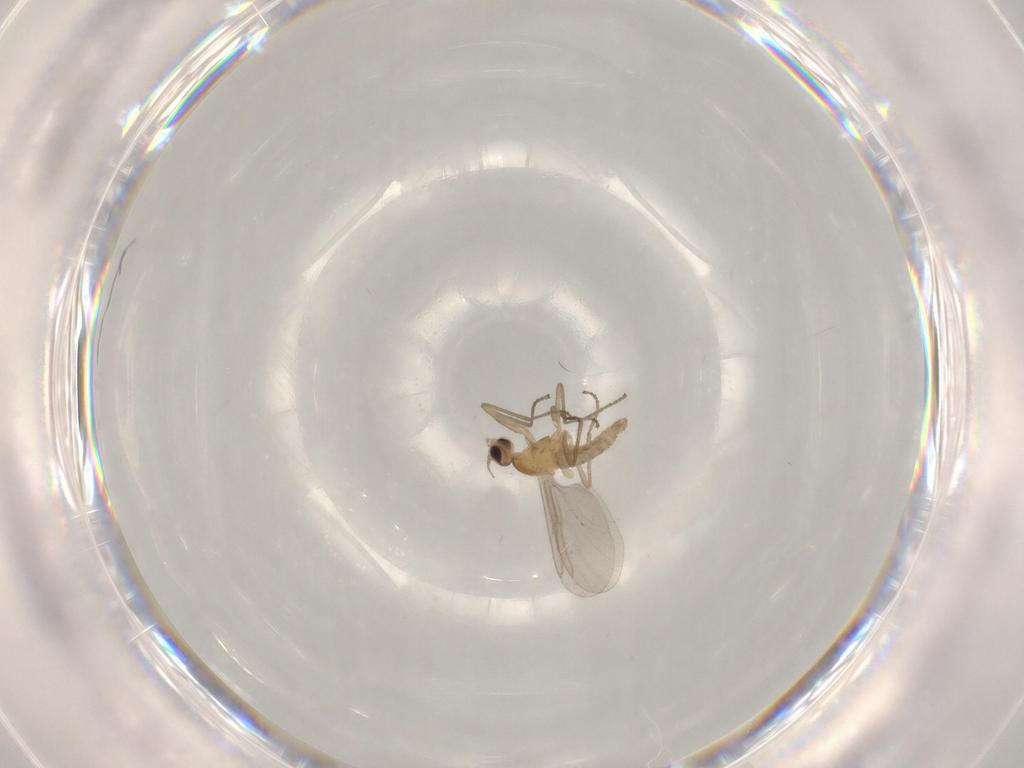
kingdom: Animalia
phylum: Arthropoda
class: Insecta
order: Diptera
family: Cecidomyiidae
